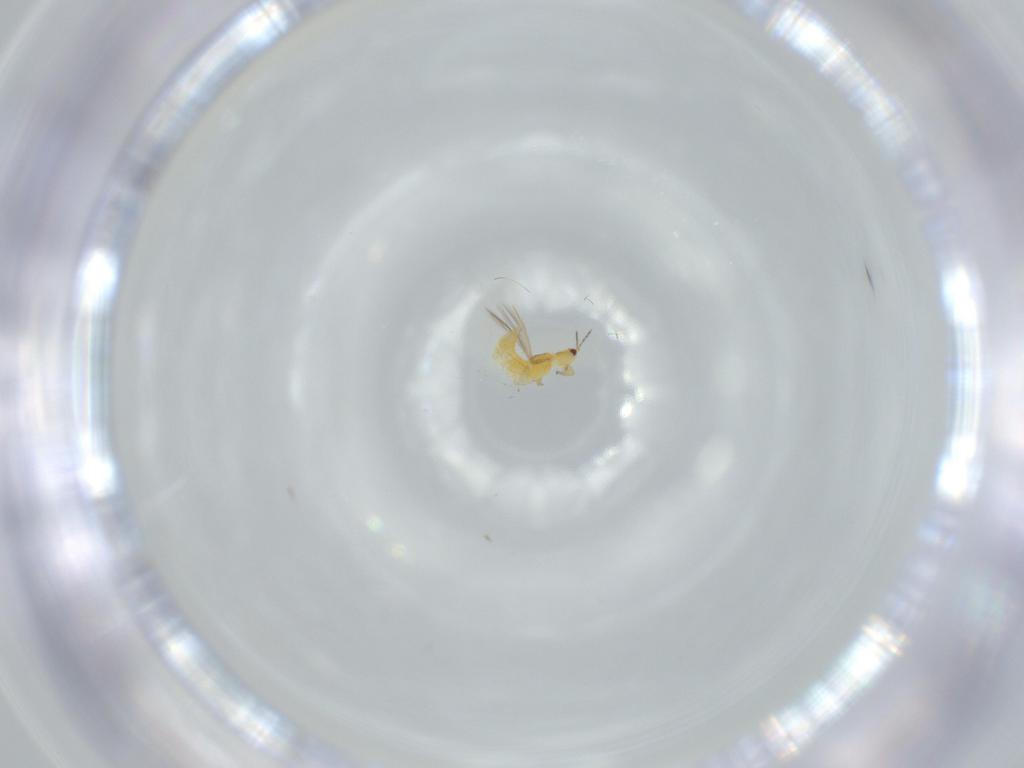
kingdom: Animalia
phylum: Arthropoda
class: Insecta
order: Thysanoptera
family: Thripidae
